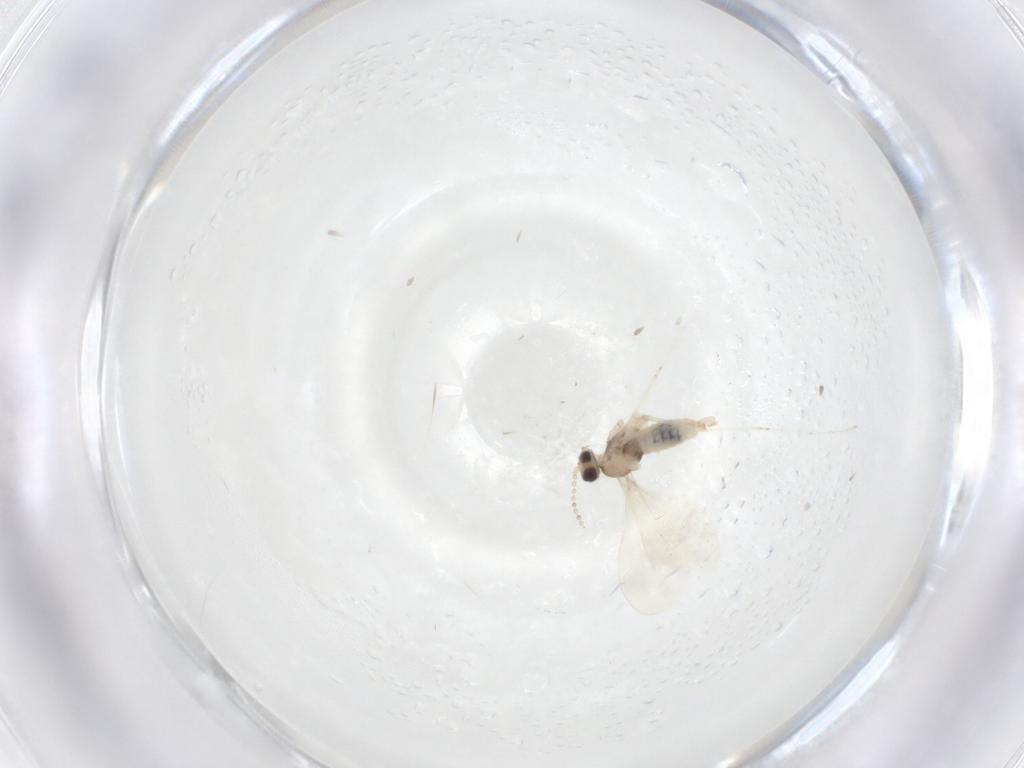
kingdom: Animalia
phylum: Arthropoda
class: Insecta
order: Diptera
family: Cecidomyiidae
